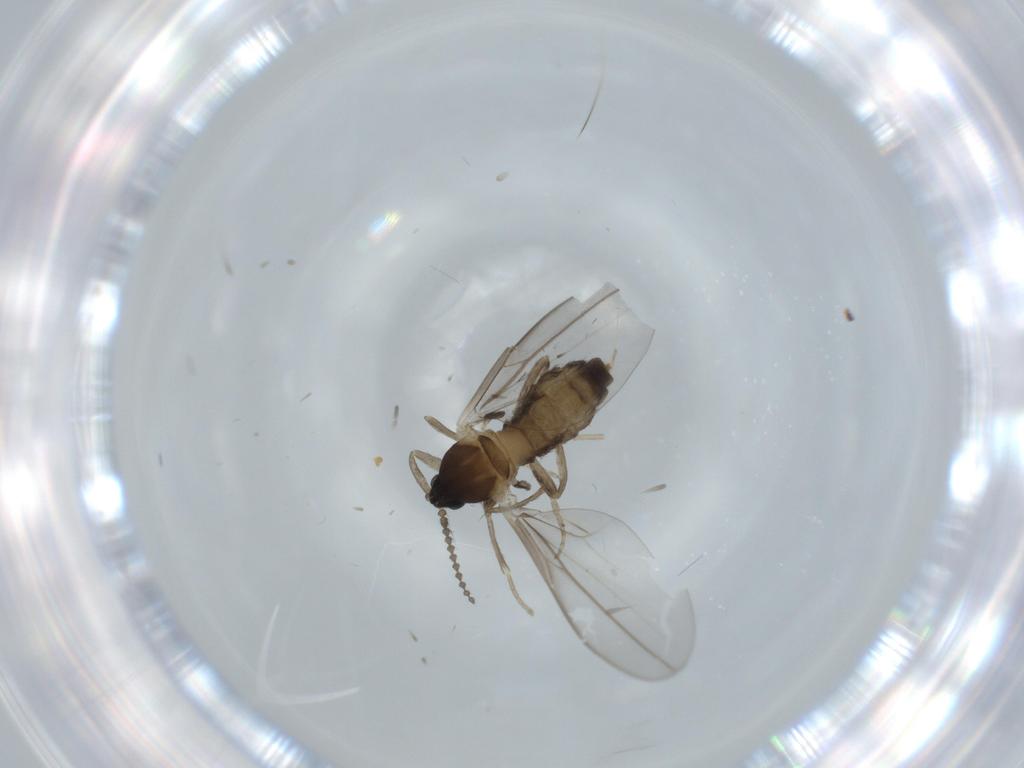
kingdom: Animalia
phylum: Arthropoda
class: Insecta
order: Diptera
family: Cecidomyiidae
